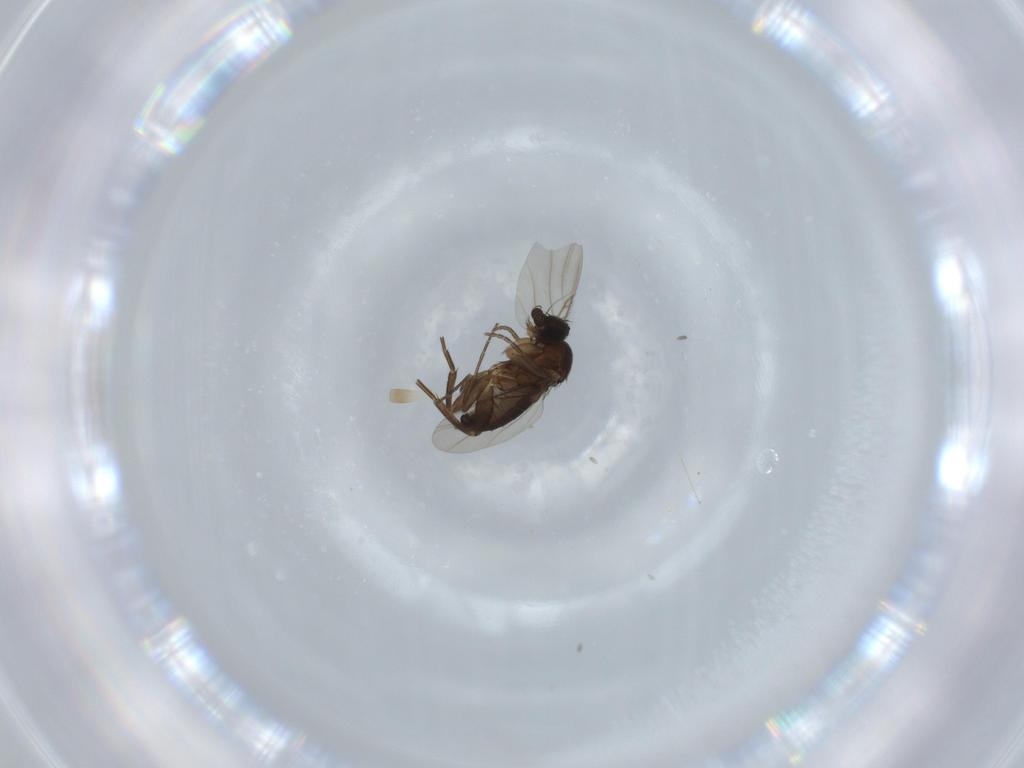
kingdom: Animalia
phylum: Arthropoda
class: Insecta
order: Diptera
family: Phoridae
